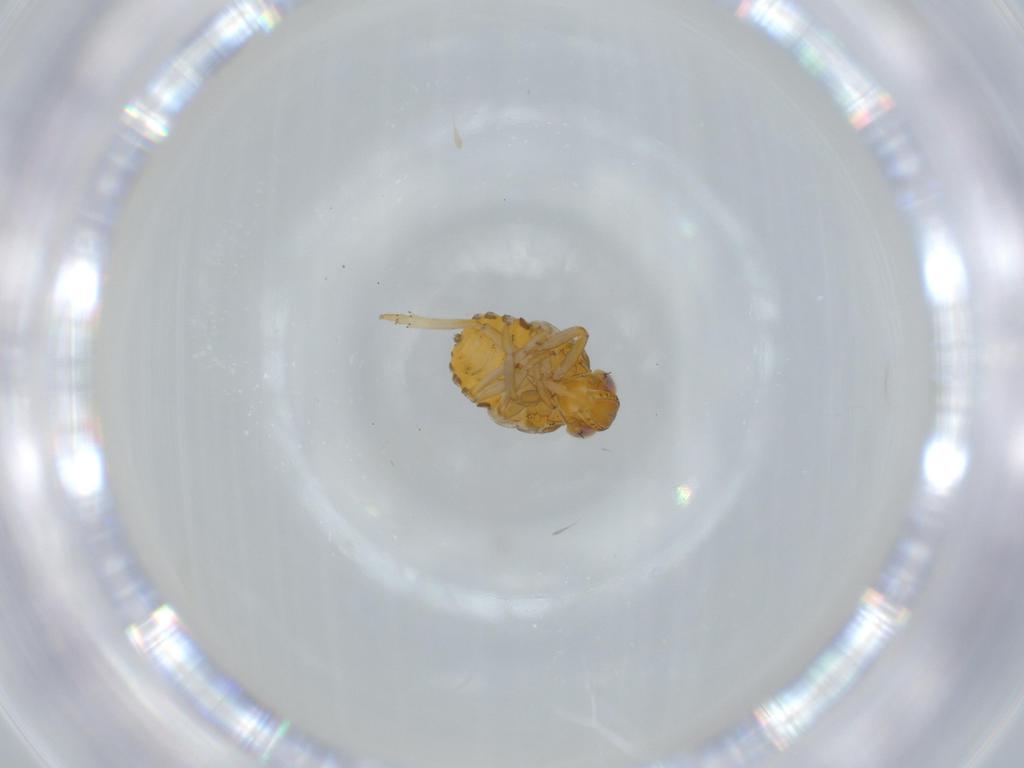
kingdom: Animalia
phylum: Arthropoda
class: Insecta
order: Hemiptera
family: Issidae
